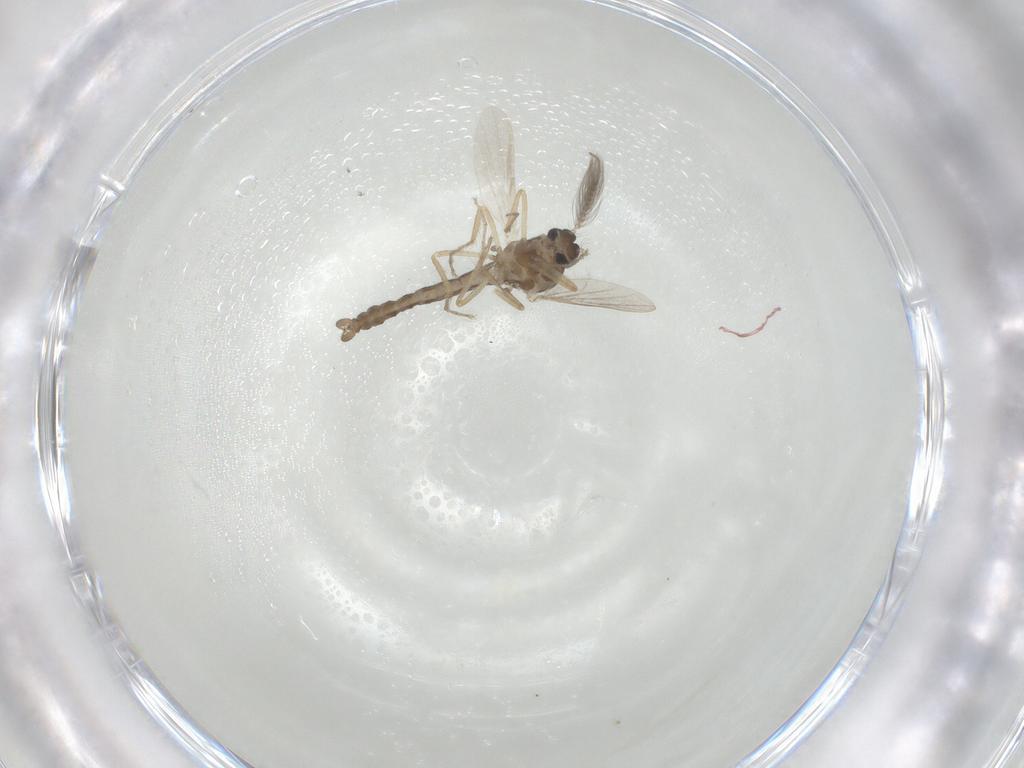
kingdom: Animalia
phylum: Arthropoda
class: Insecta
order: Diptera
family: Ceratopogonidae
